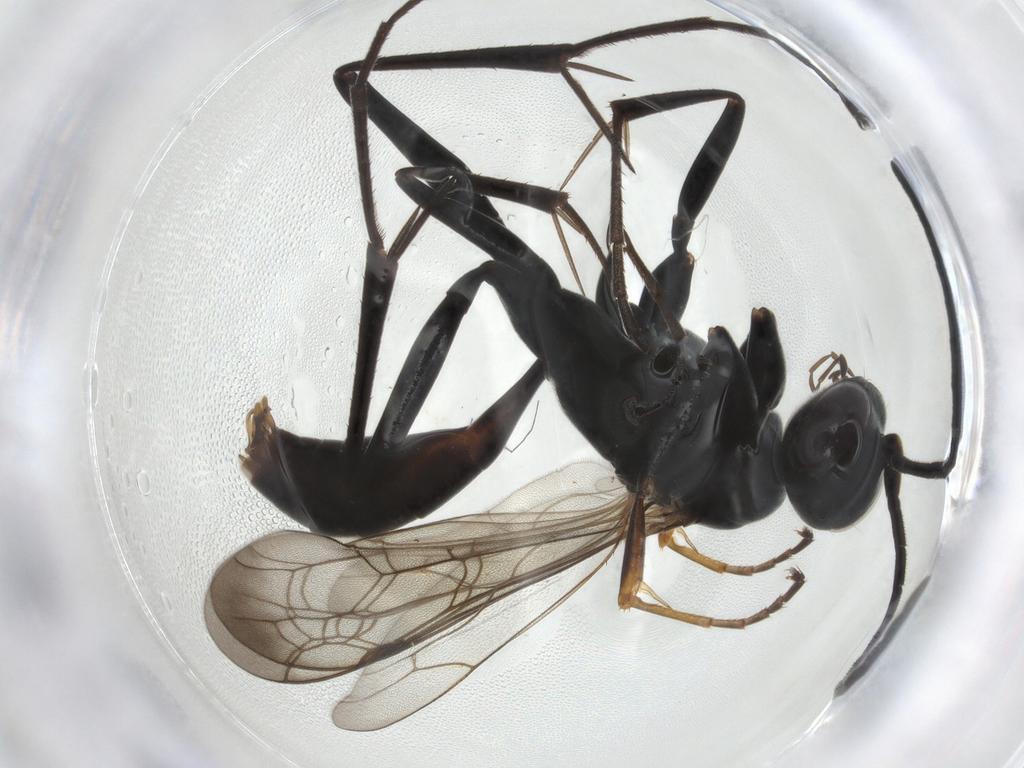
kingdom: Animalia
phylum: Arthropoda
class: Insecta
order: Hymenoptera
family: Pompilidae
